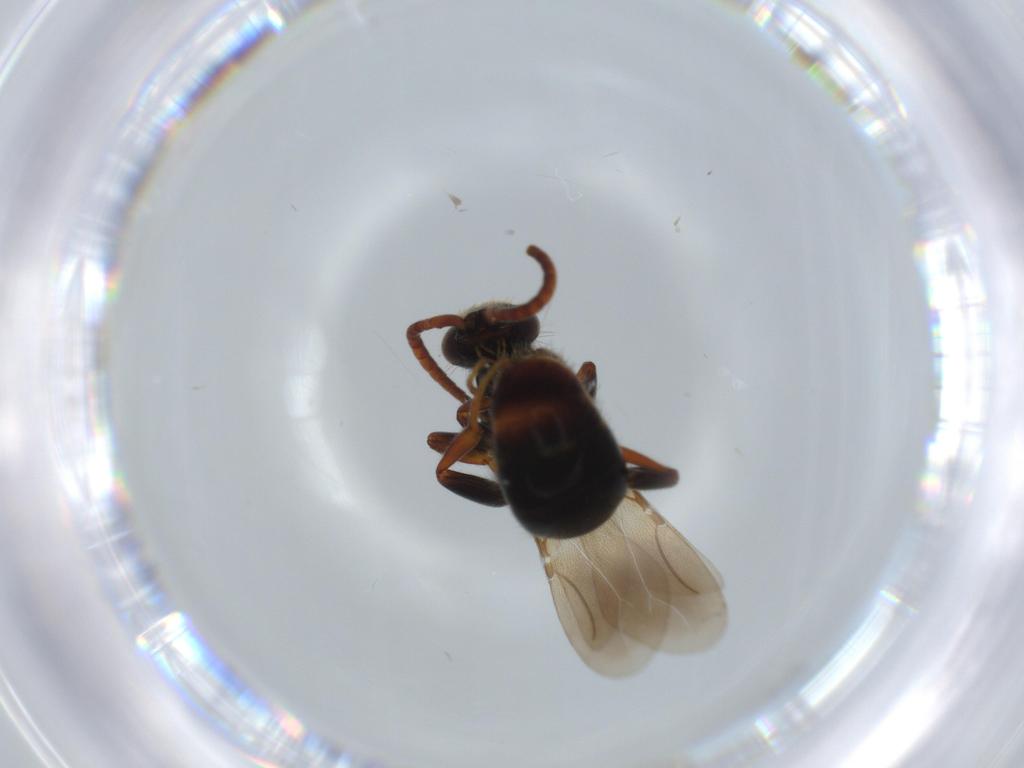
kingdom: Animalia
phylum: Arthropoda
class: Insecta
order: Hymenoptera
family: Bethylidae
